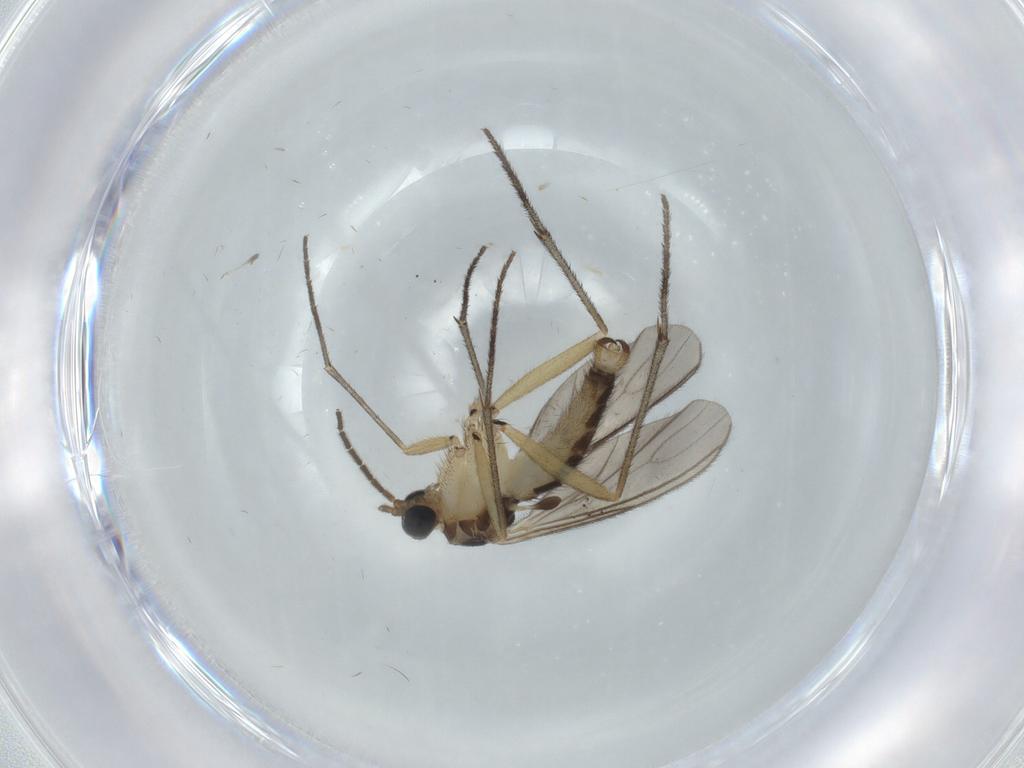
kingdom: Animalia
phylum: Arthropoda
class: Insecta
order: Diptera
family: Sciaridae
